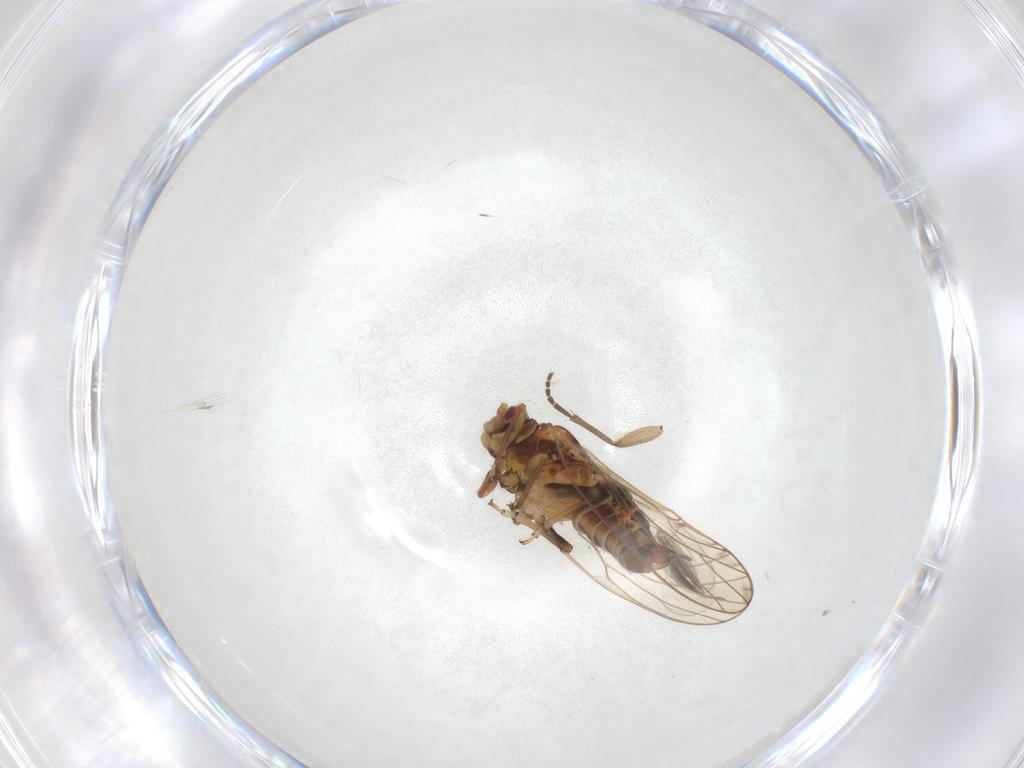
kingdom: Animalia
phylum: Arthropoda
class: Insecta
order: Hemiptera
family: Psyllidae
